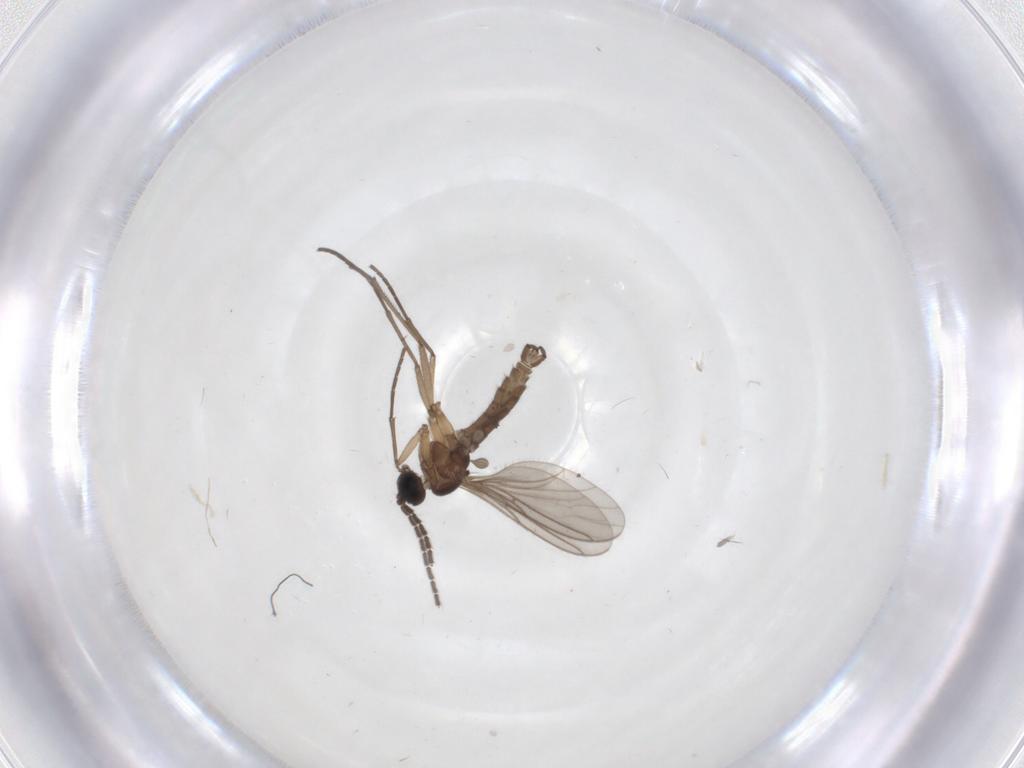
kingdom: Animalia
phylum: Arthropoda
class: Insecta
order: Diptera
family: Sciaridae
